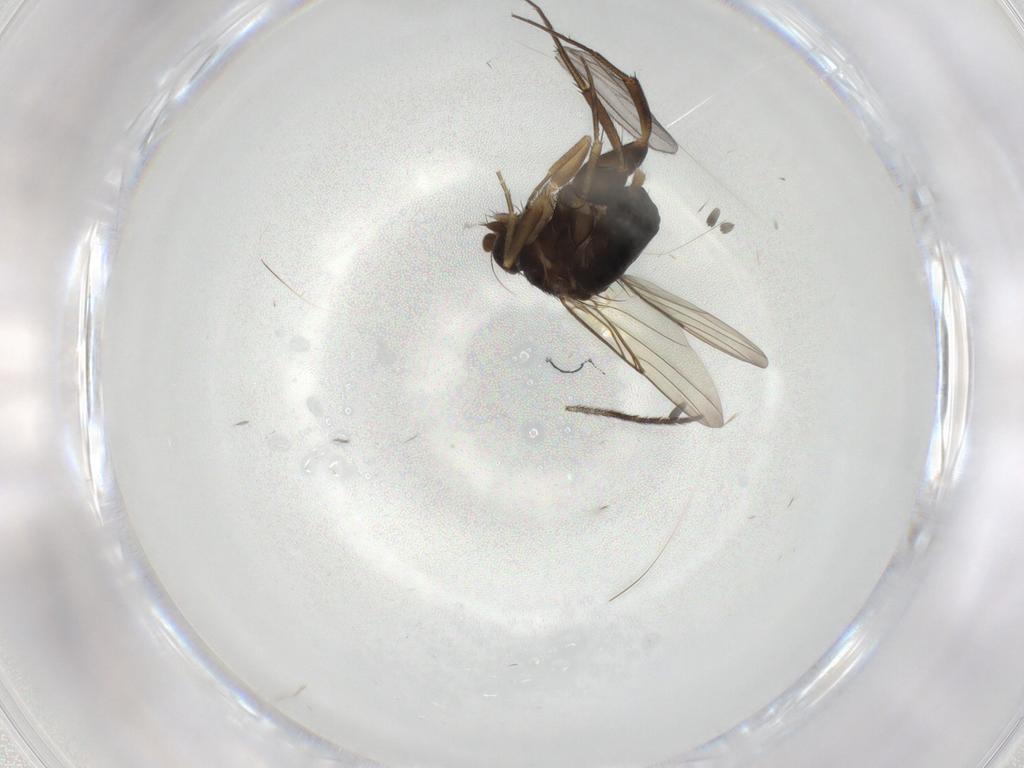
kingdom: Animalia
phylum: Arthropoda
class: Insecta
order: Diptera
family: Phoridae
